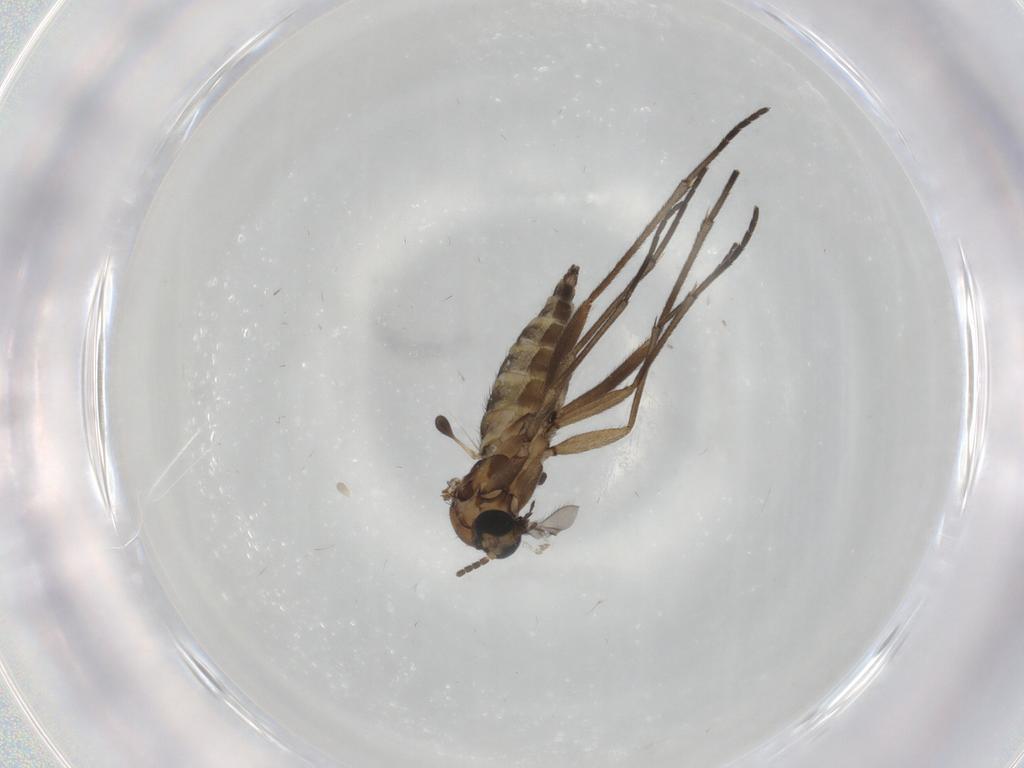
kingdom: Animalia
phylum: Arthropoda
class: Insecta
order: Diptera
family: Sciaridae
